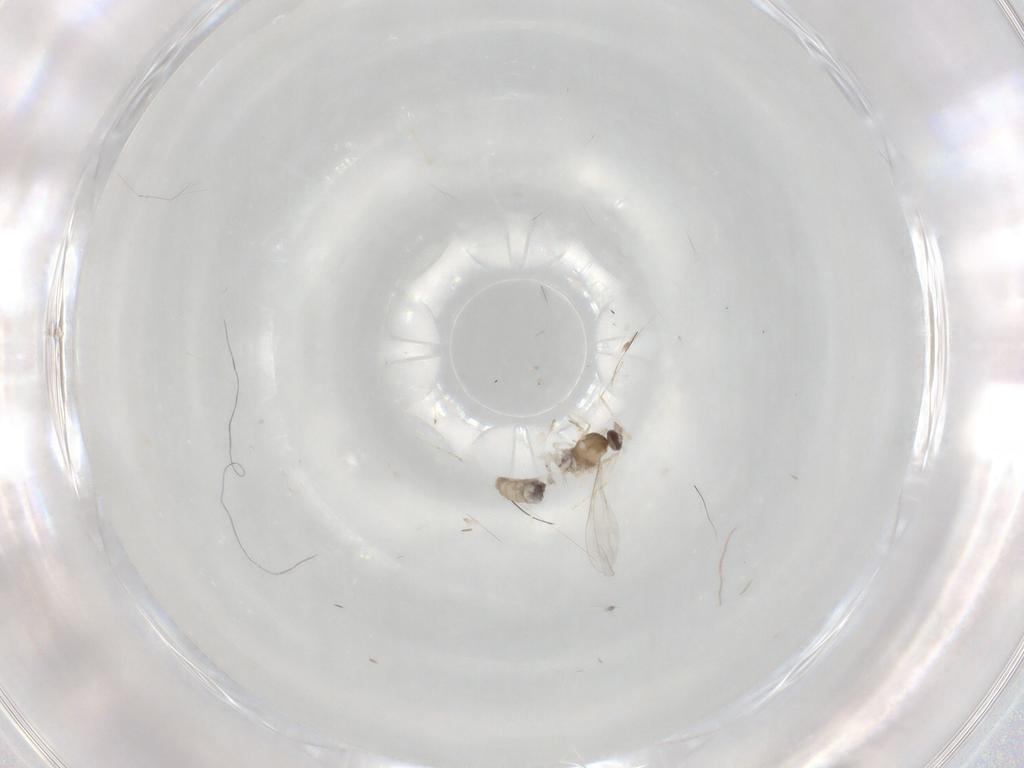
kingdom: Animalia
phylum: Arthropoda
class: Insecta
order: Diptera
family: Cecidomyiidae
